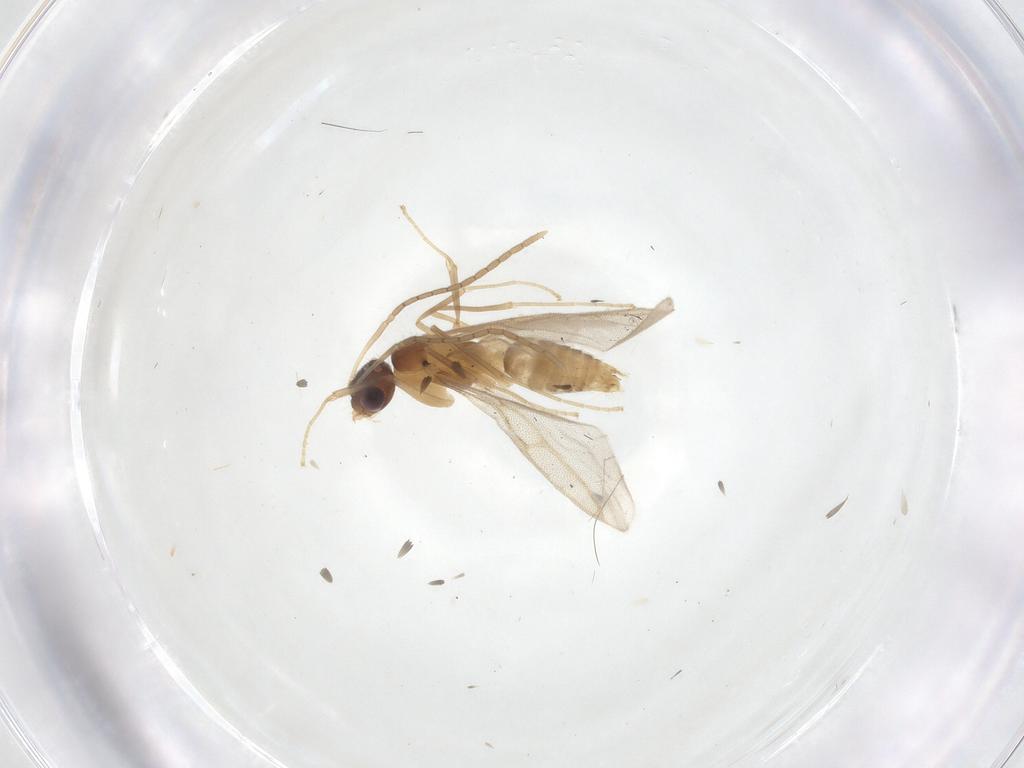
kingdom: Animalia
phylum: Arthropoda
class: Insecta
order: Hymenoptera
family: Formicidae
